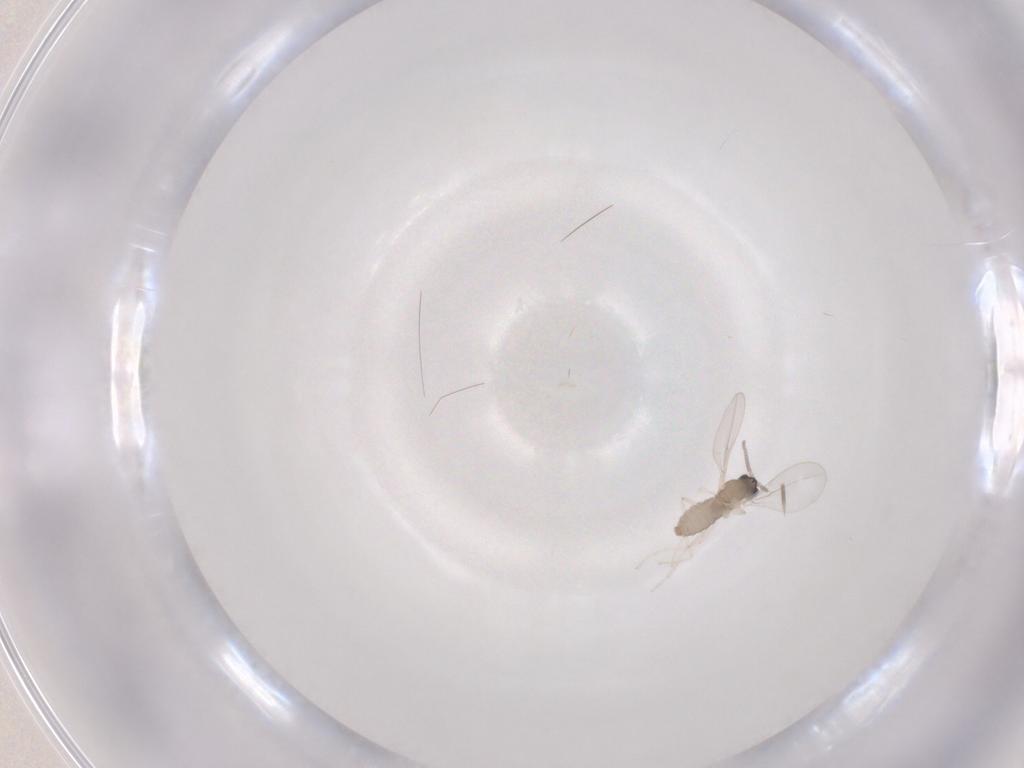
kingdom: Animalia
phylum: Arthropoda
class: Insecta
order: Diptera
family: Cecidomyiidae
